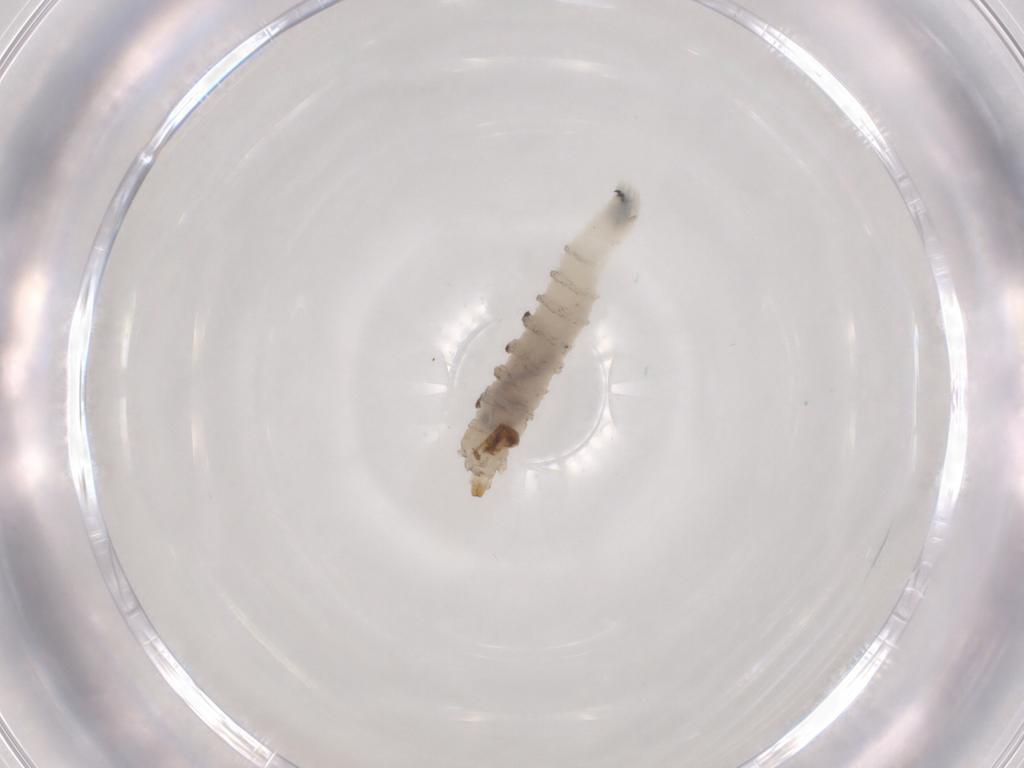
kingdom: Animalia
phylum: Arthropoda
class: Insecta
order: Diptera
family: Drosophilidae
